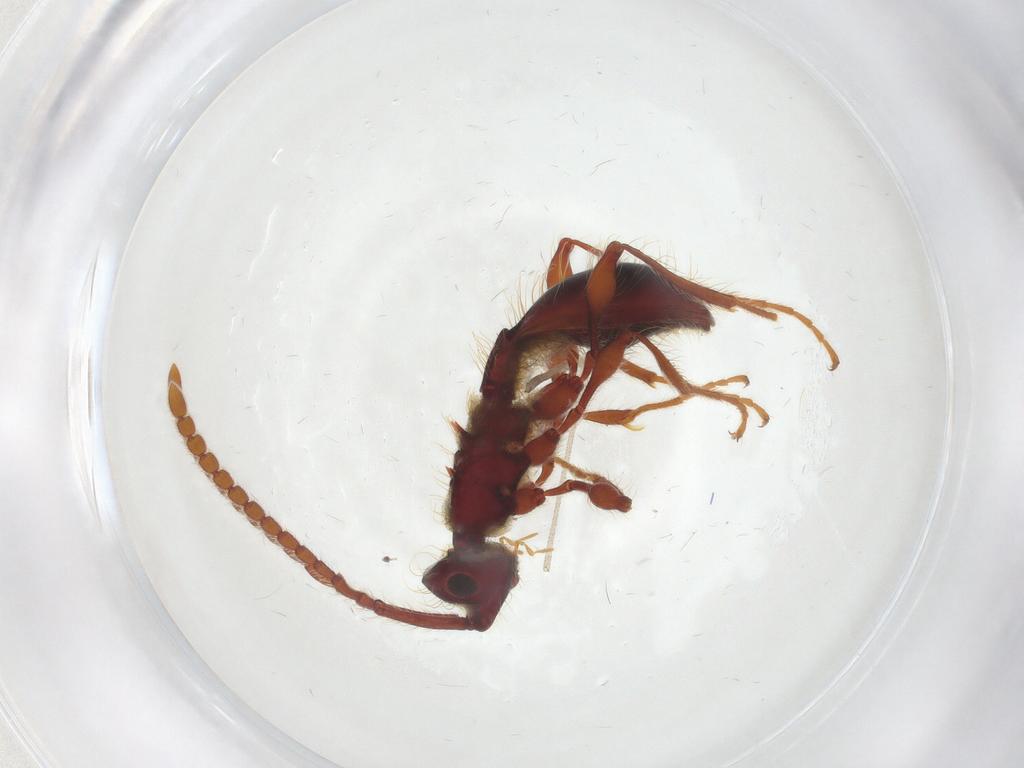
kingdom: Animalia
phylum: Arthropoda
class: Insecta
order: Hymenoptera
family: Diapriidae
